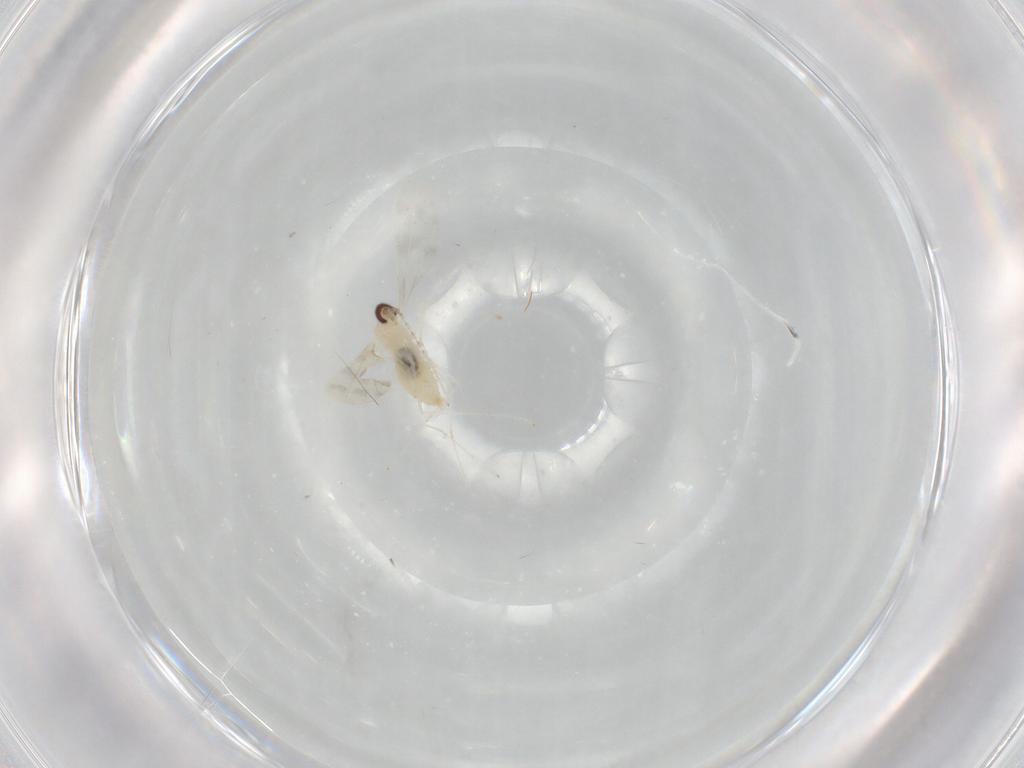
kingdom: Animalia
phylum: Arthropoda
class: Insecta
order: Diptera
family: Cecidomyiidae
